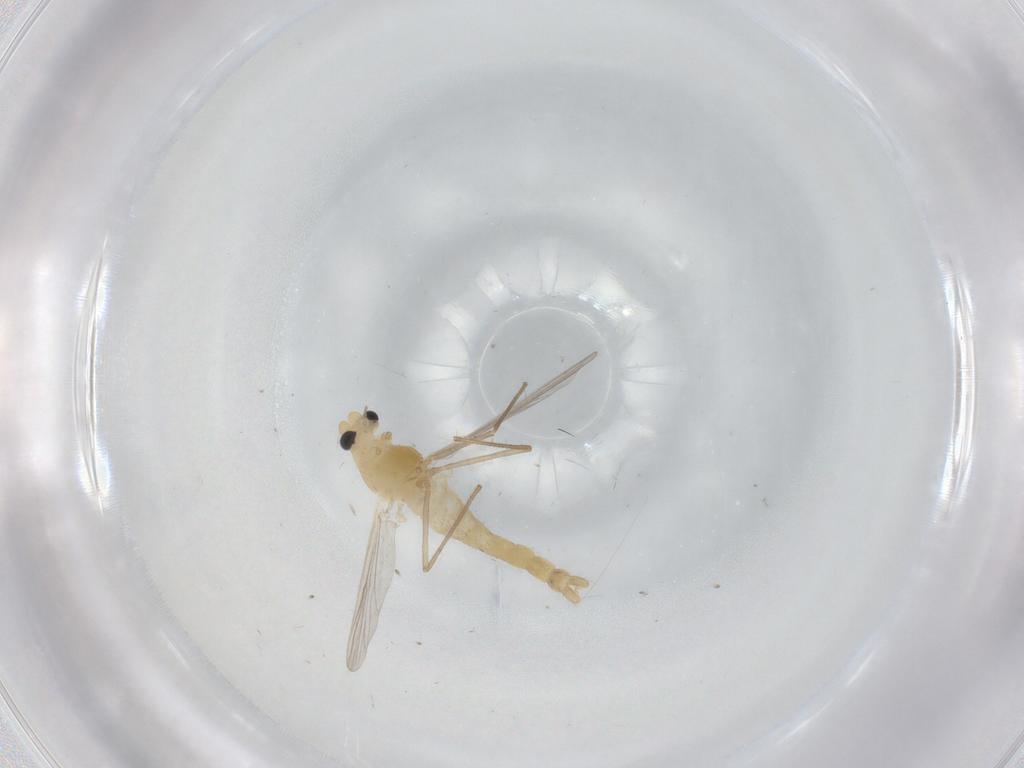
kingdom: Animalia
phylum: Arthropoda
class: Insecta
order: Diptera
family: Chironomidae
